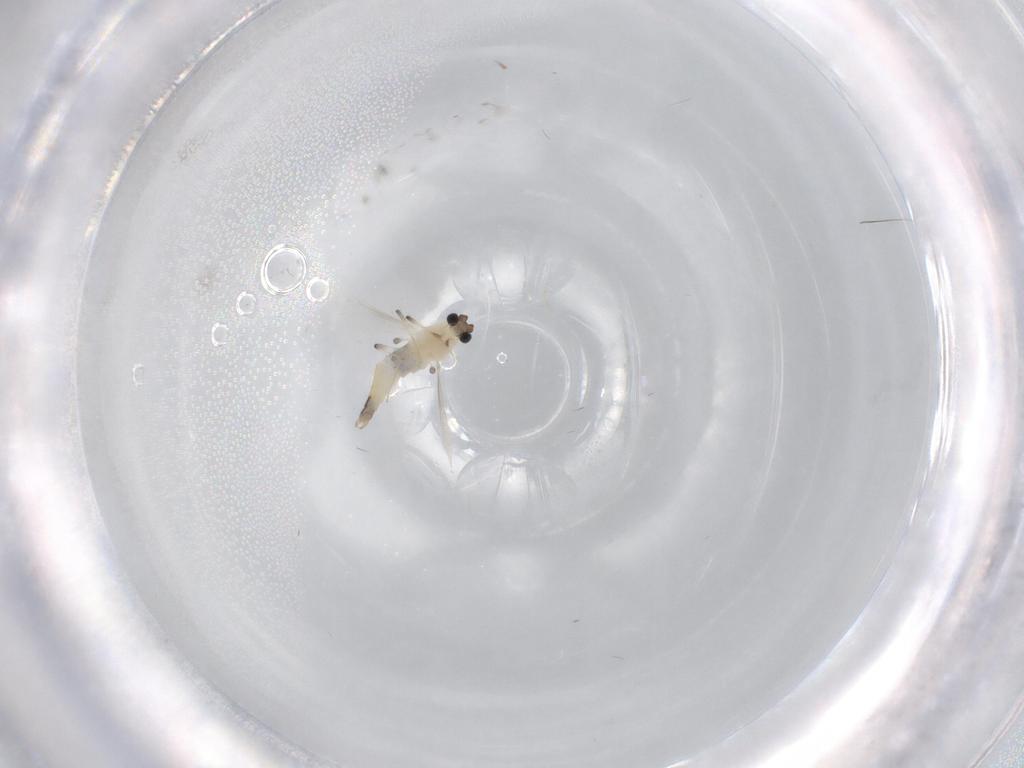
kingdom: Animalia
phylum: Arthropoda
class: Insecta
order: Diptera
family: Chironomidae
